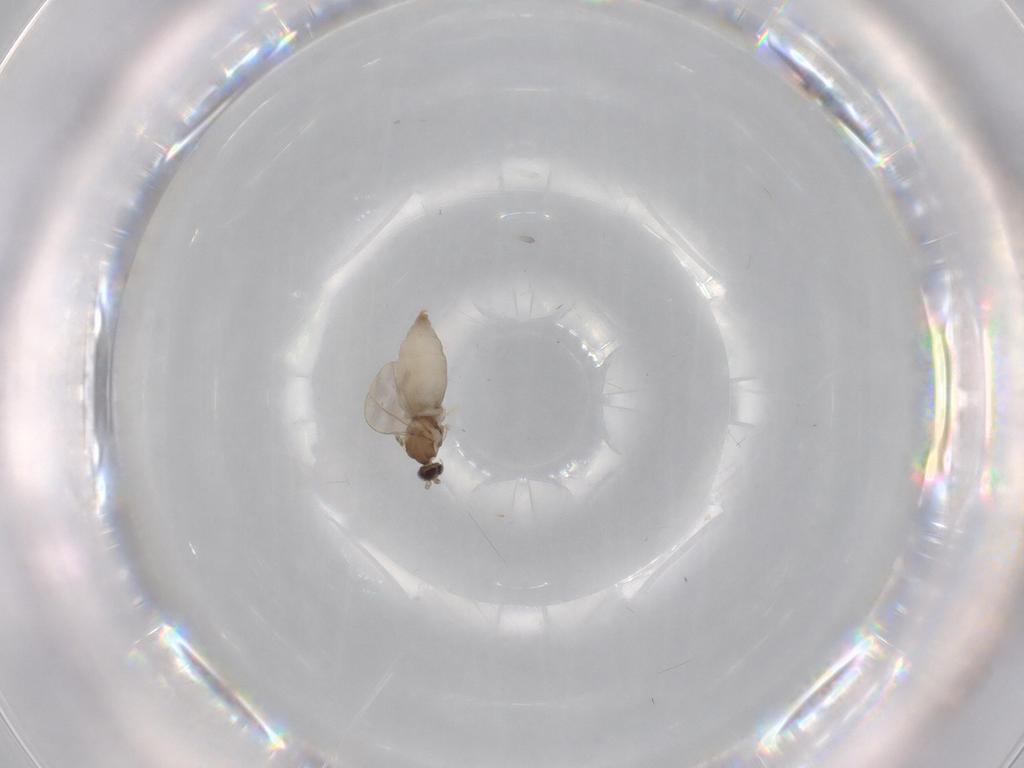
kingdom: Animalia
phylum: Arthropoda
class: Insecta
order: Diptera
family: Cecidomyiidae
